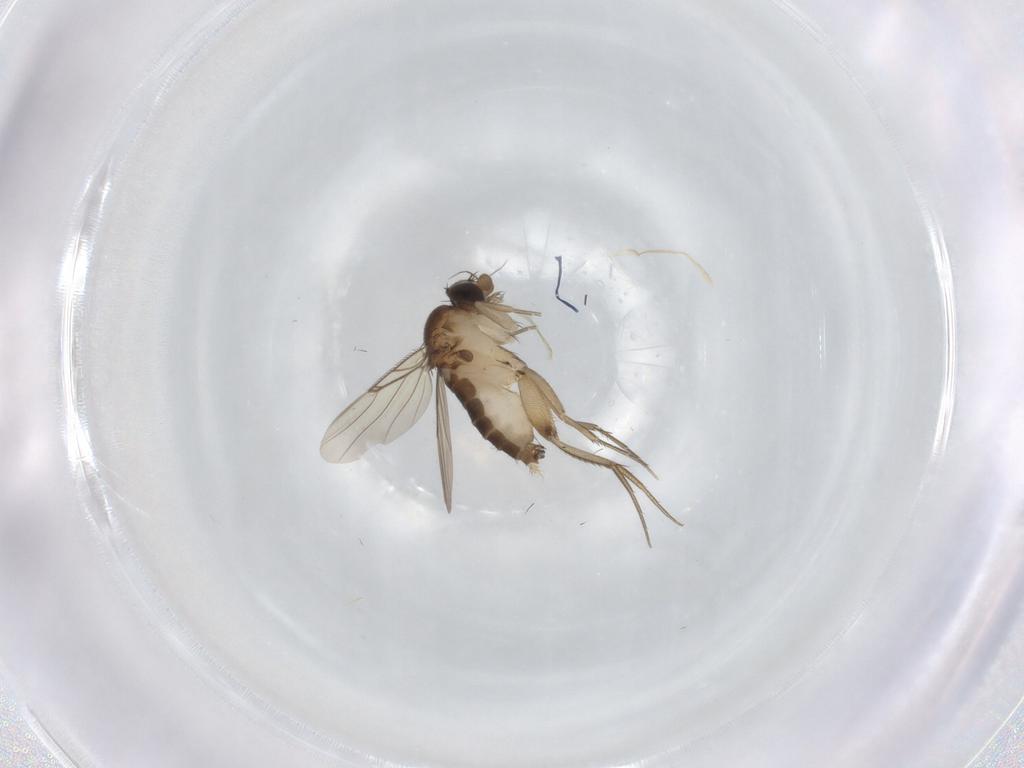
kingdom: Animalia
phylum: Arthropoda
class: Insecta
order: Diptera
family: Phoridae
